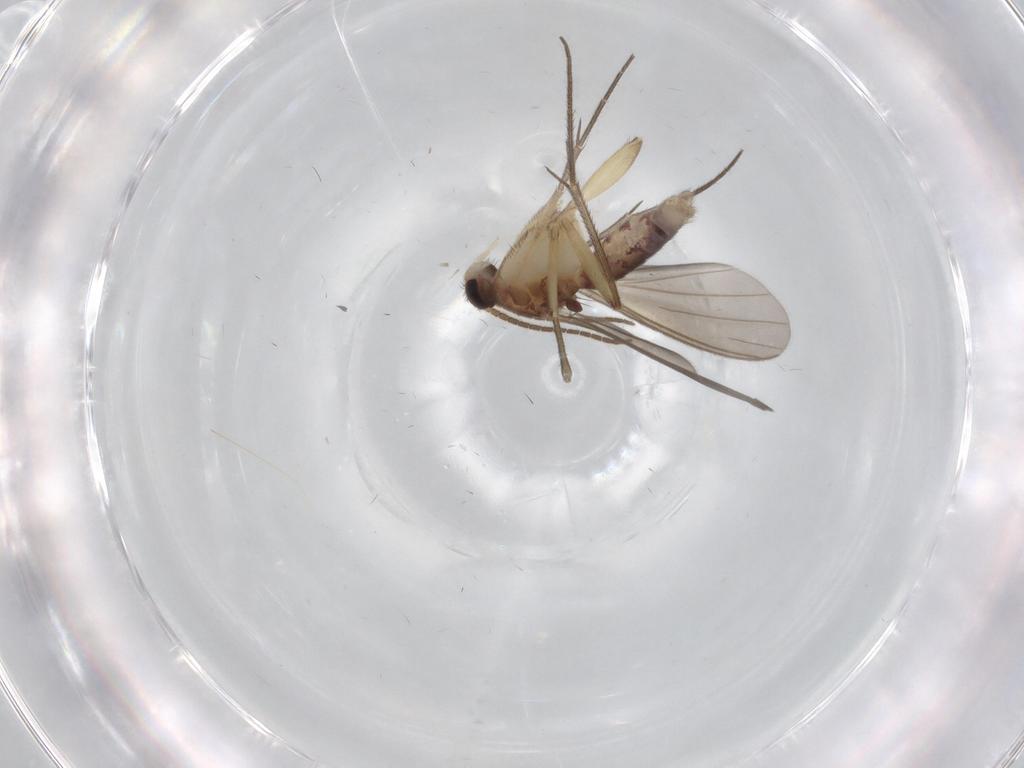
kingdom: Animalia
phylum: Arthropoda
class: Insecta
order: Diptera
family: Mycetophilidae
